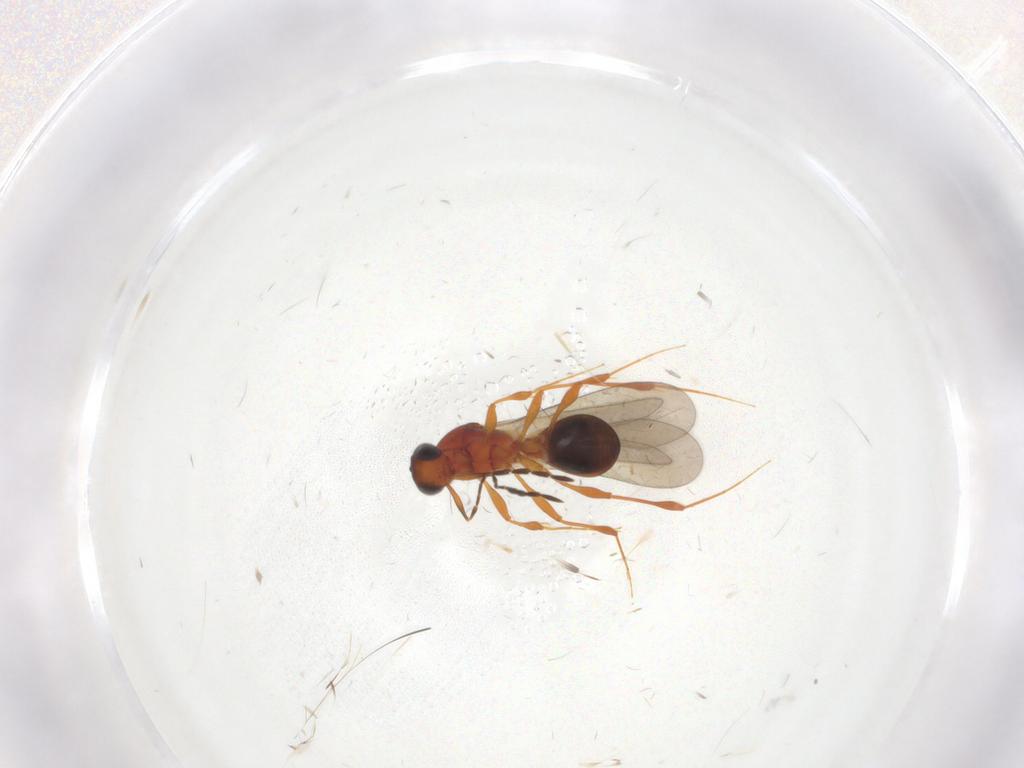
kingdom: Animalia
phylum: Arthropoda
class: Insecta
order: Hymenoptera
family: Platygastridae
